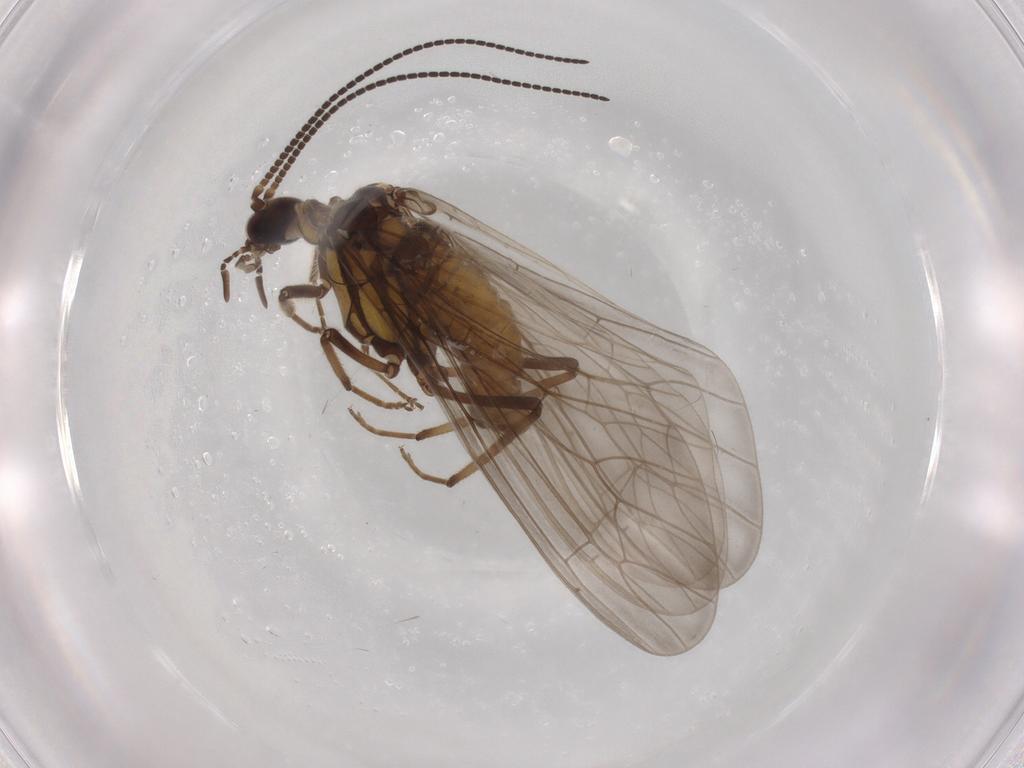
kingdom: Animalia
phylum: Arthropoda
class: Insecta
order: Neuroptera
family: Coniopterygidae
